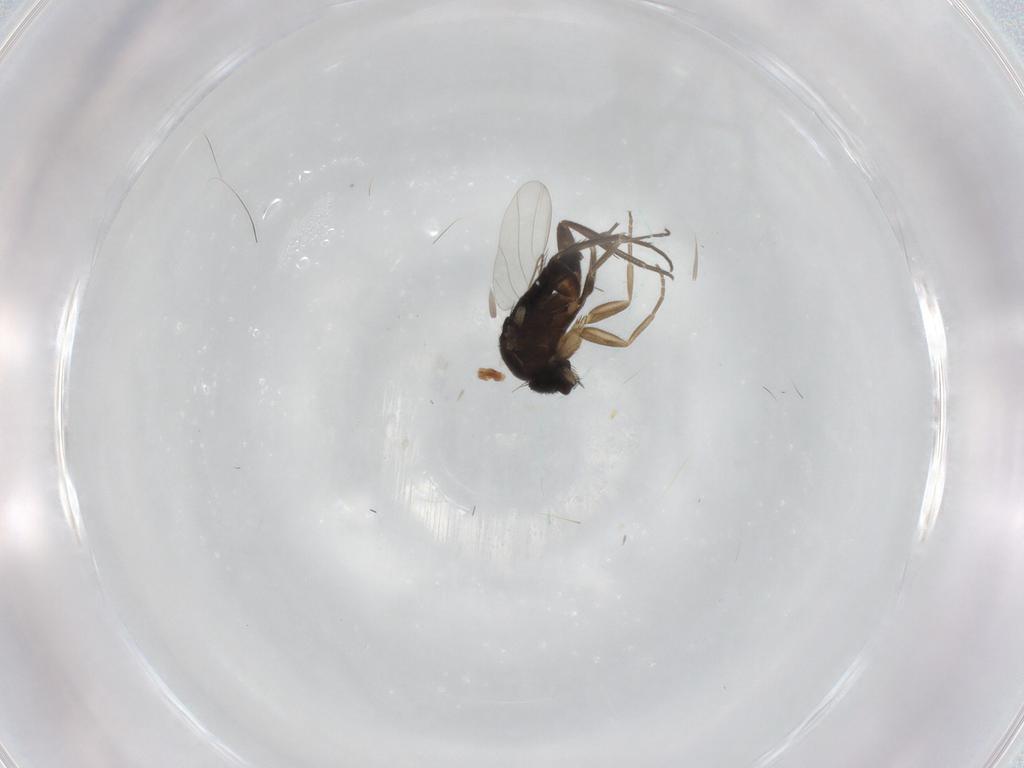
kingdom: Animalia
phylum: Arthropoda
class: Insecta
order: Diptera
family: Phoridae
